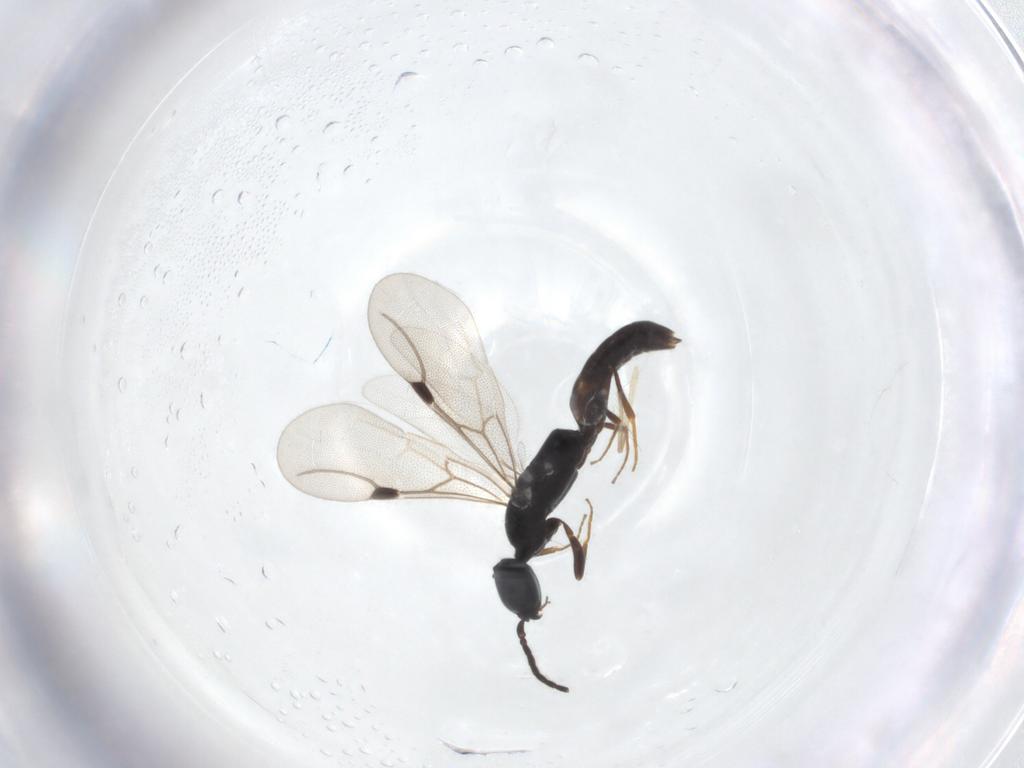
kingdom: Animalia
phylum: Arthropoda
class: Insecta
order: Hymenoptera
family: Bethylidae
